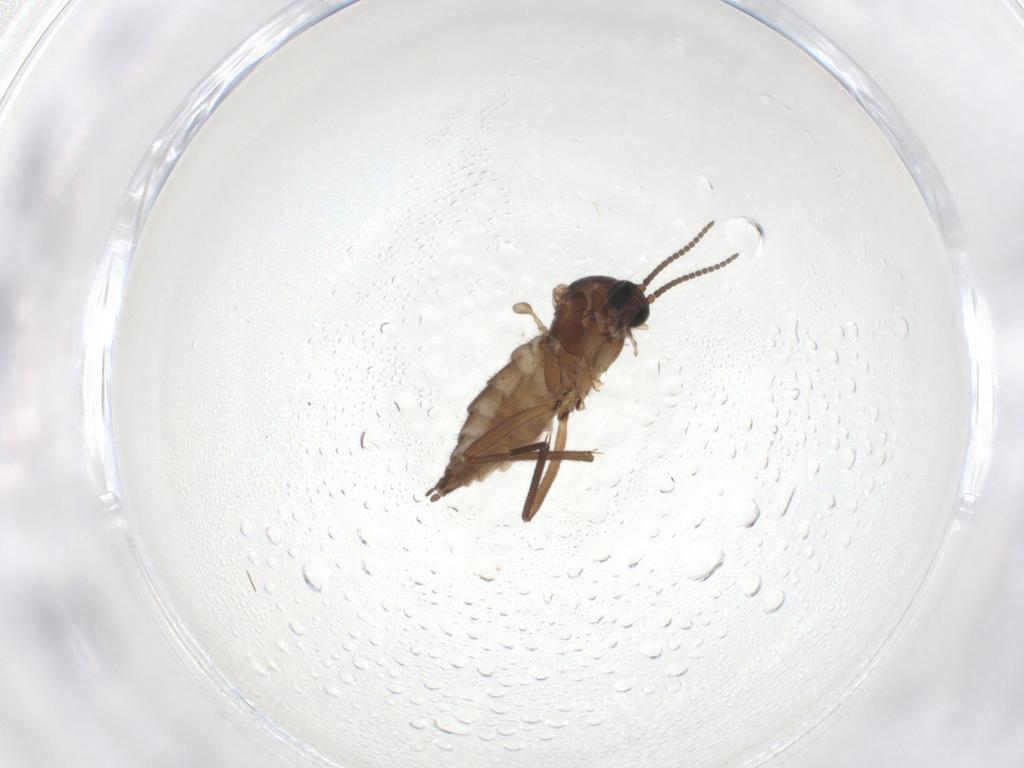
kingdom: Animalia
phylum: Arthropoda
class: Insecta
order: Diptera
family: Sciaridae
